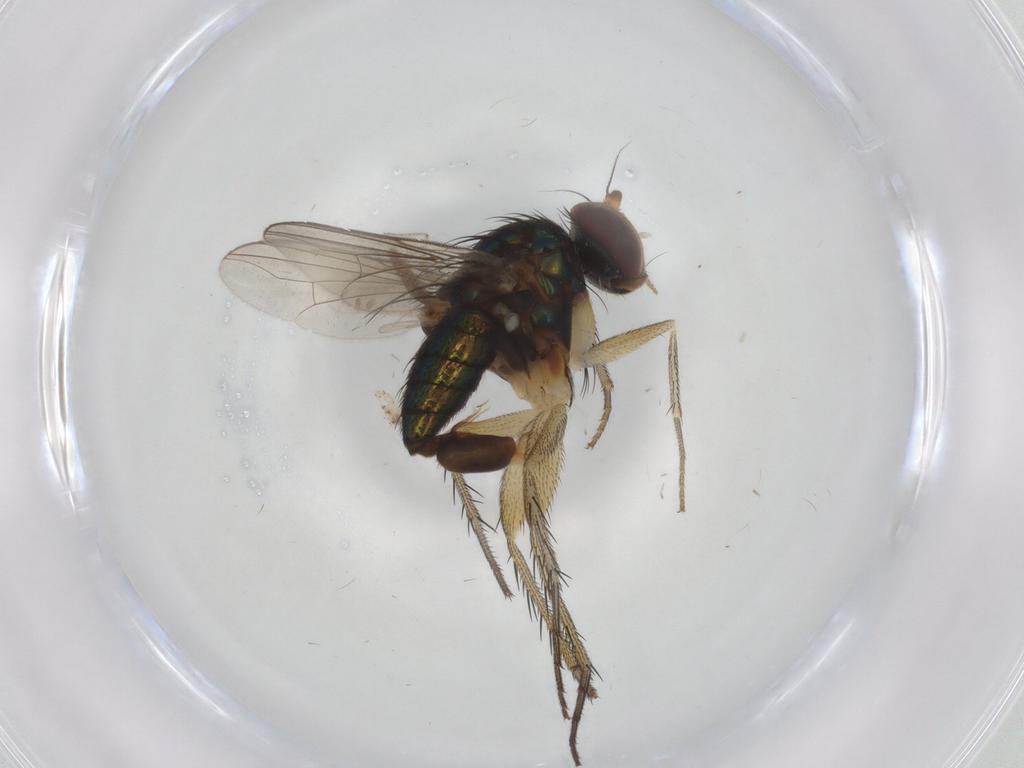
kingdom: Animalia
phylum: Arthropoda
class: Insecta
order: Diptera
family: Dolichopodidae
